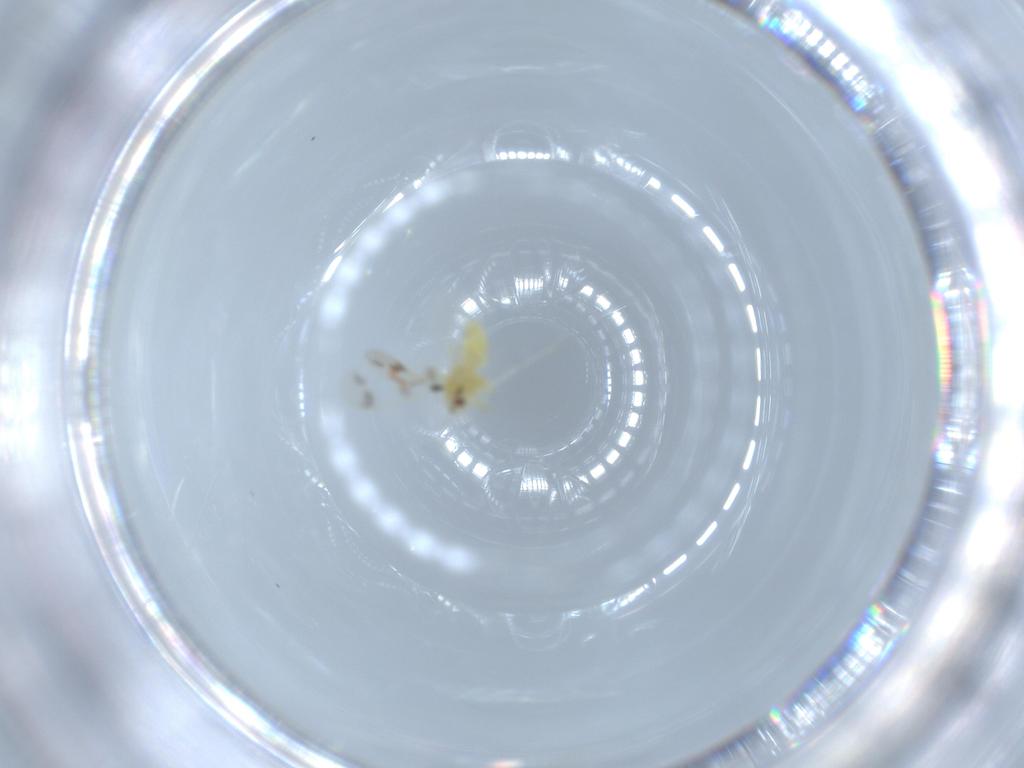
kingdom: Animalia
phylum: Arthropoda
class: Insecta
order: Hemiptera
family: Aleyrodidae
